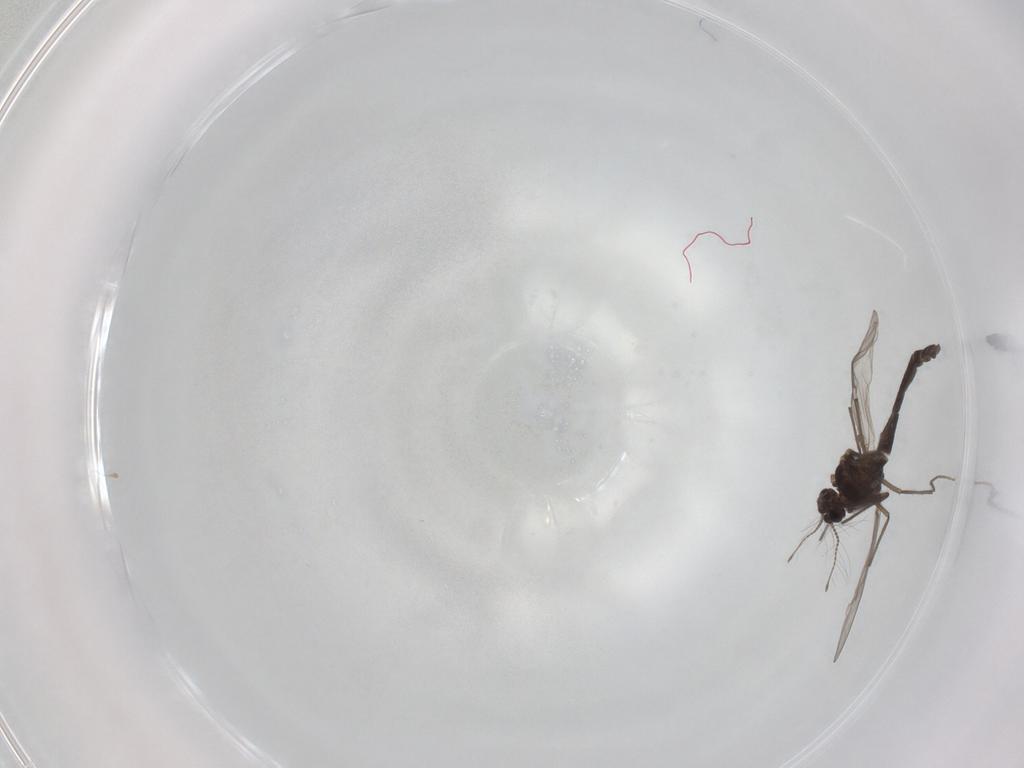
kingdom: Animalia
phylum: Arthropoda
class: Insecta
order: Diptera
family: Chironomidae
